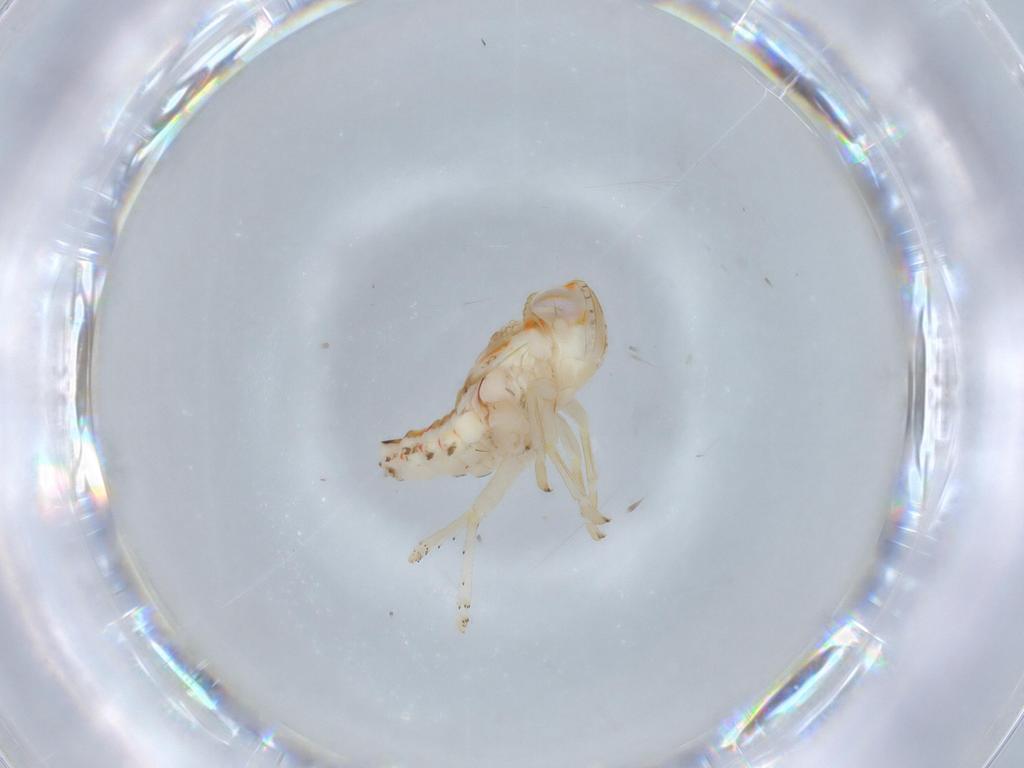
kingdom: Animalia
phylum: Arthropoda
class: Insecta
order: Hemiptera
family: Nogodinidae
